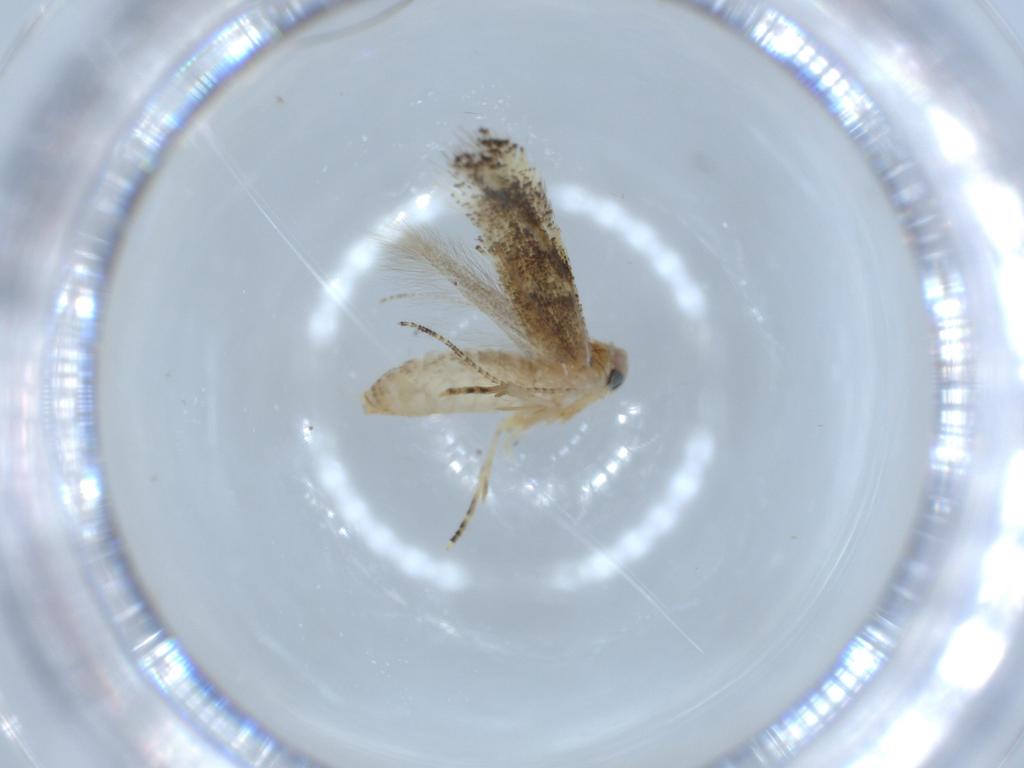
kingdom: Animalia
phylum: Arthropoda
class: Insecta
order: Lepidoptera
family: Bucculatricidae
